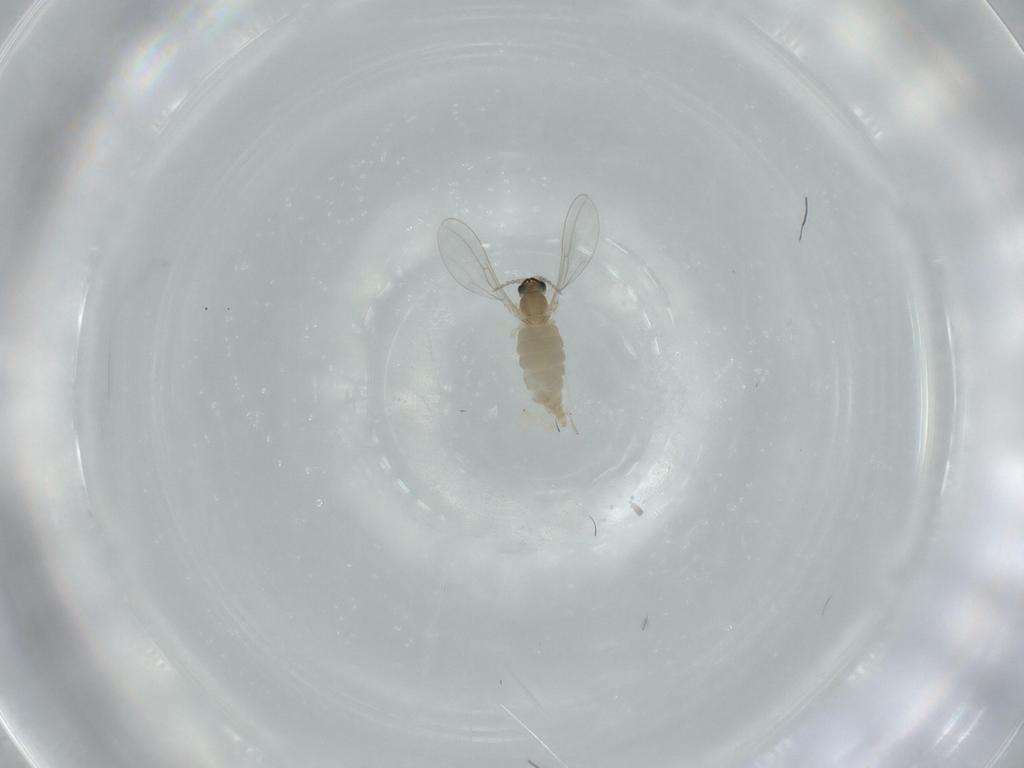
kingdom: Animalia
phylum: Arthropoda
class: Insecta
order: Diptera
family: Cecidomyiidae
